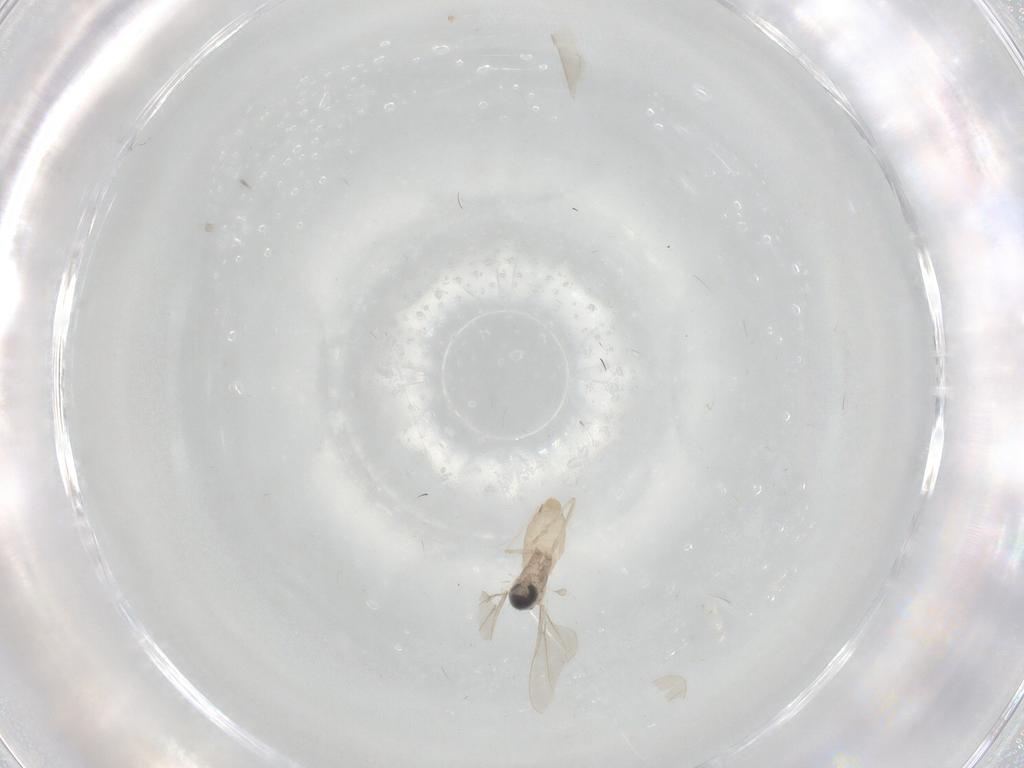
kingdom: Animalia
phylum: Arthropoda
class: Insecta
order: Diptera
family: Cecidomyiidae
